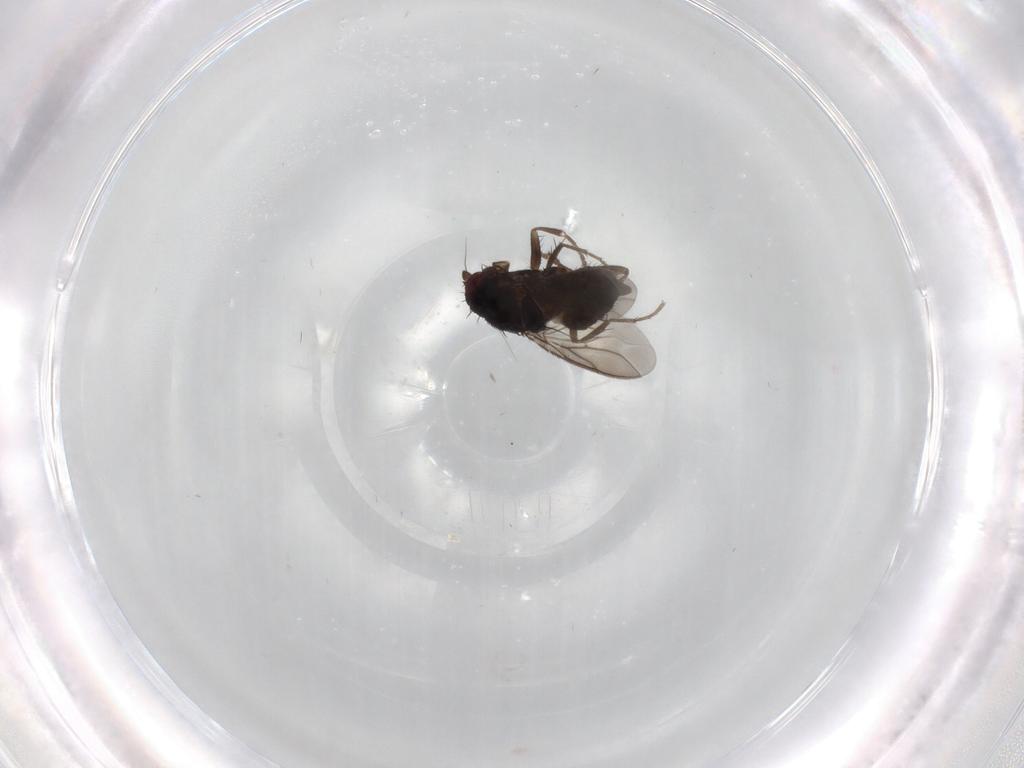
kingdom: Animalia
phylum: Arthropoda
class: Insecta
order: Diptera
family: Sphaeroceridae
